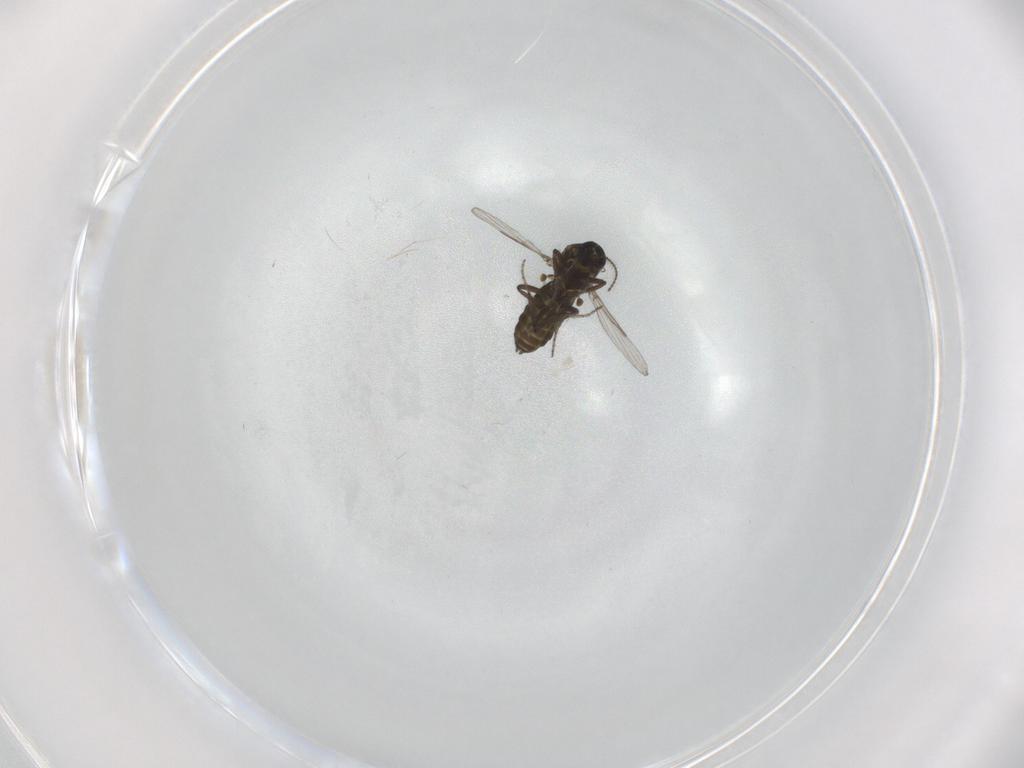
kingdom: Animalia
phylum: Arthropoda
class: Insecta
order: Diptera
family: Ceratopogonidae
